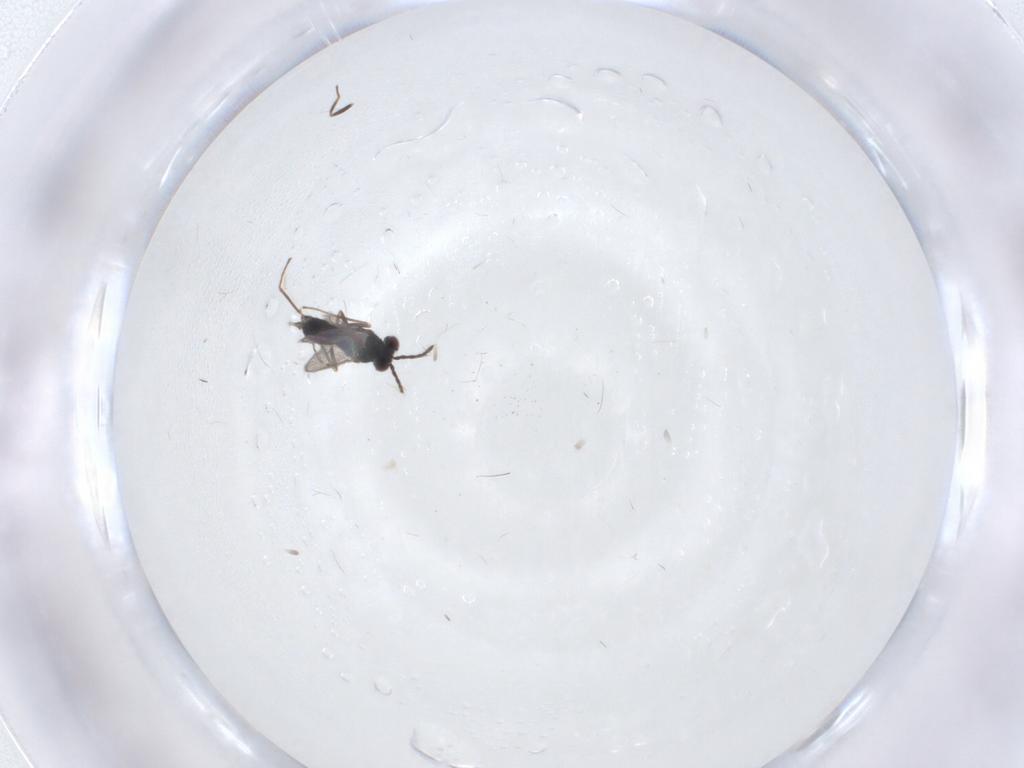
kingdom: Animalia
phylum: Arthropoda
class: Insecta
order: Hymenoptera
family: Eulophidae
